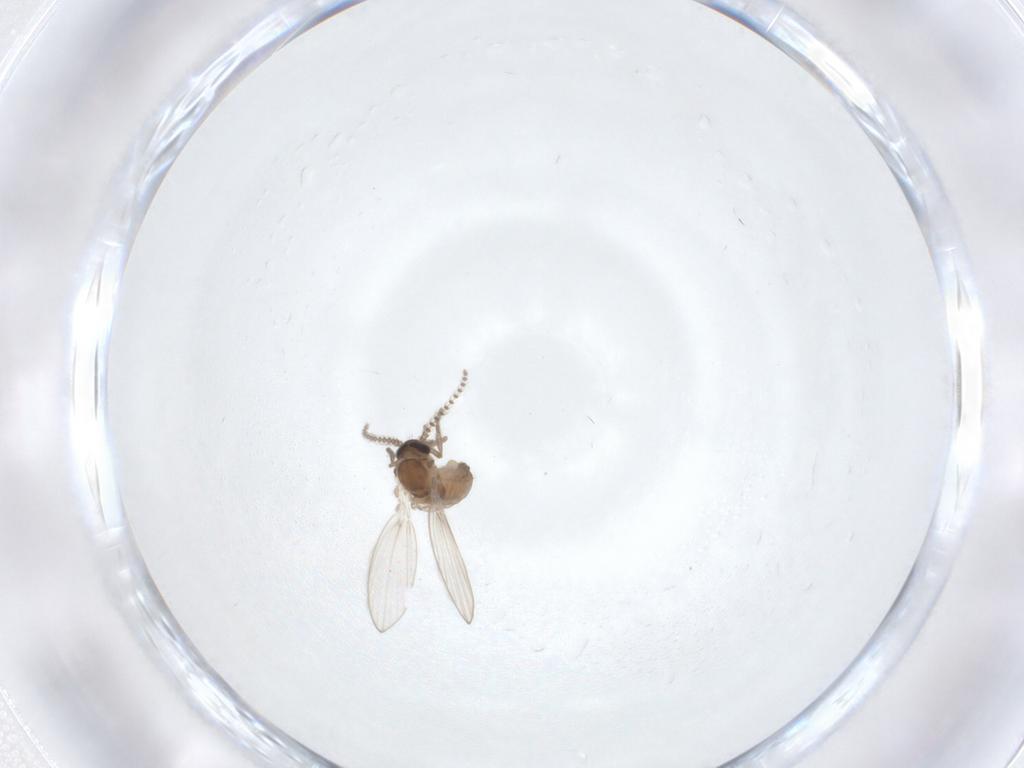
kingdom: Animalia
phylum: Arthropoda
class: Insecta
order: Diptera
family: Psychodidae
